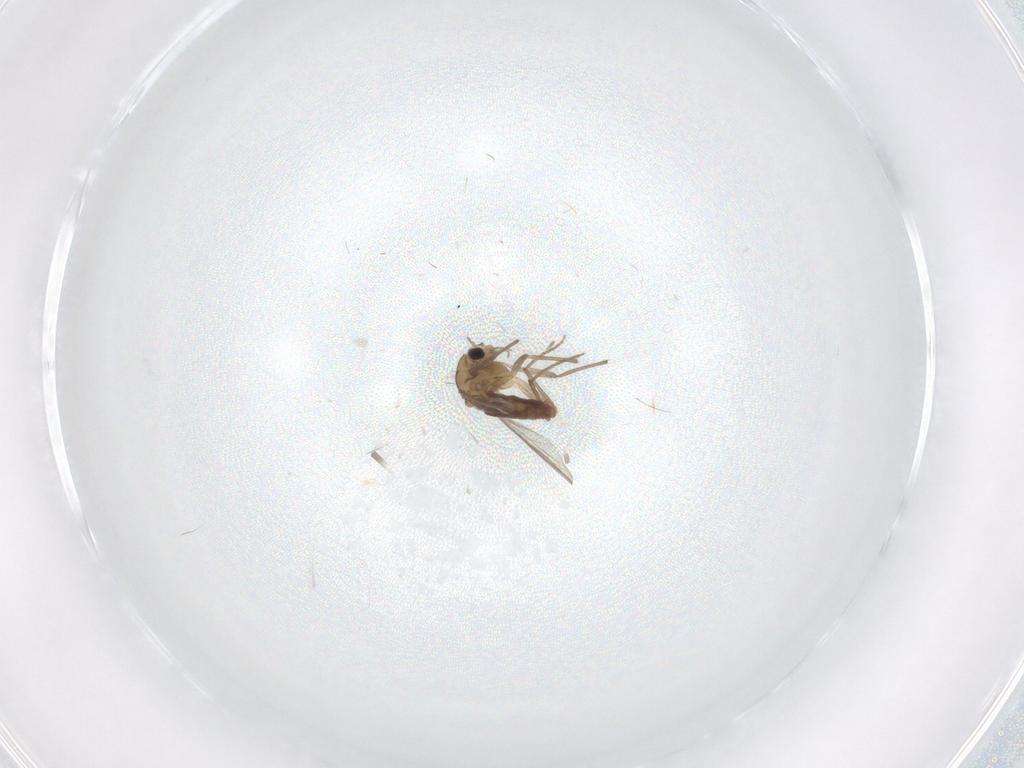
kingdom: Animalia
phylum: Arthropoda
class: Insecta
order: Diptera
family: Chironomidae
